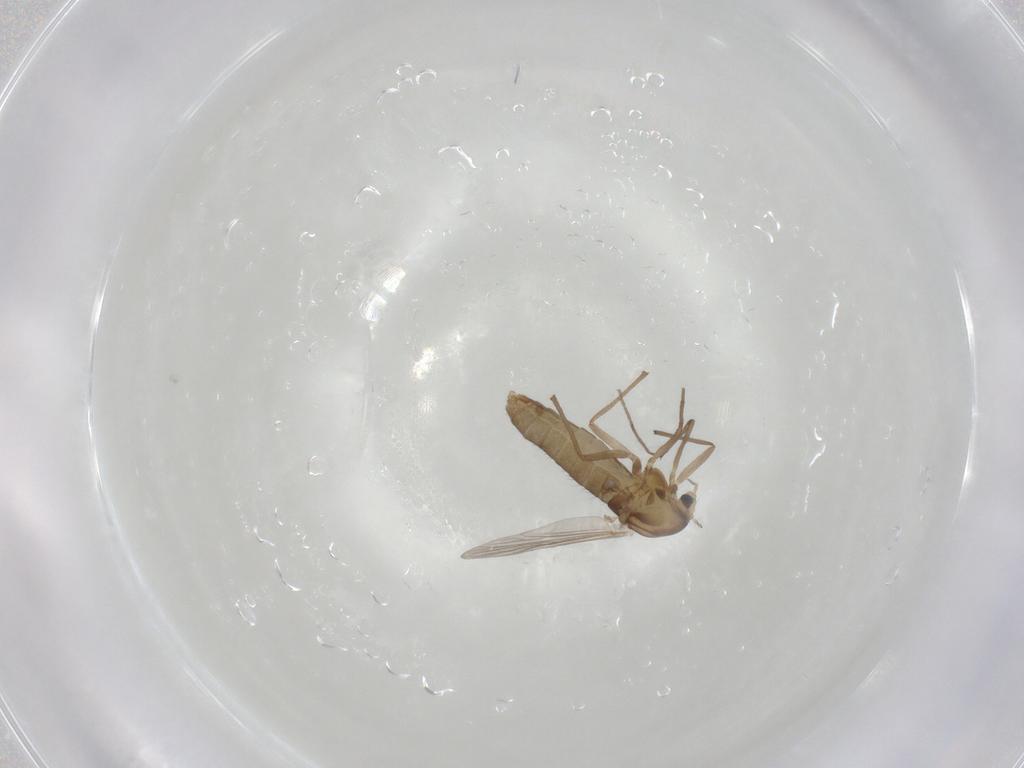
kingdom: Animalia
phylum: Arthropoda
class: Insecta
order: Diptera
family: Chironomidae
